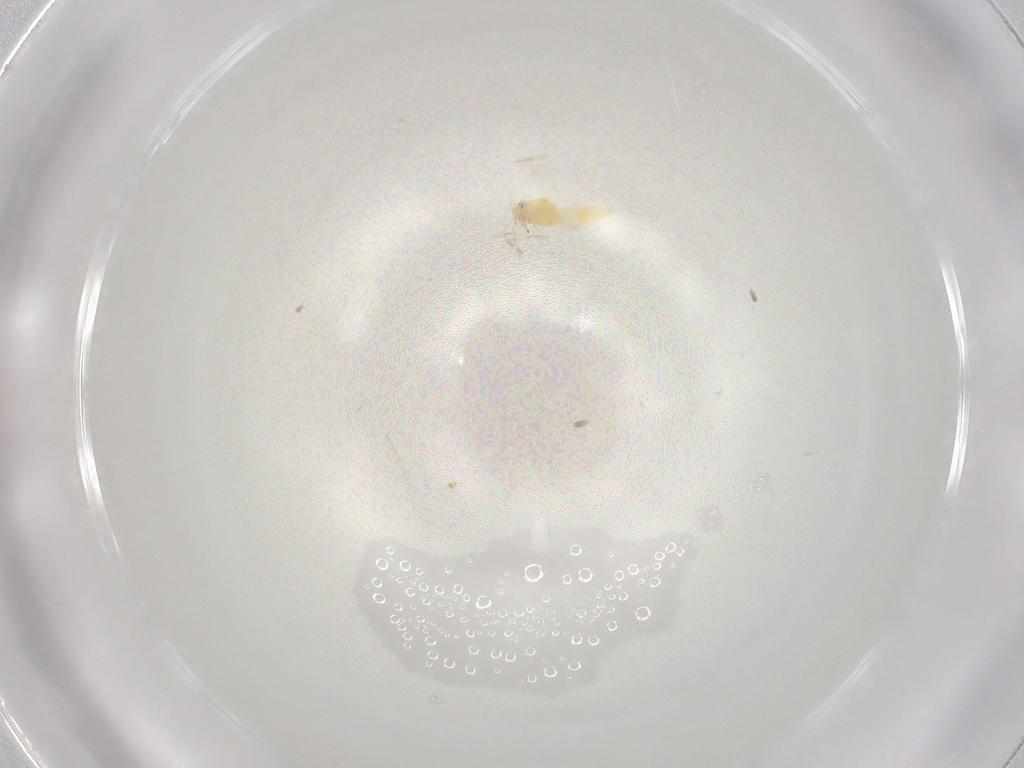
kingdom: Animalia
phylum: Arthropoda
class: Insecta
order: Hemiptera
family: Anthocoridae
